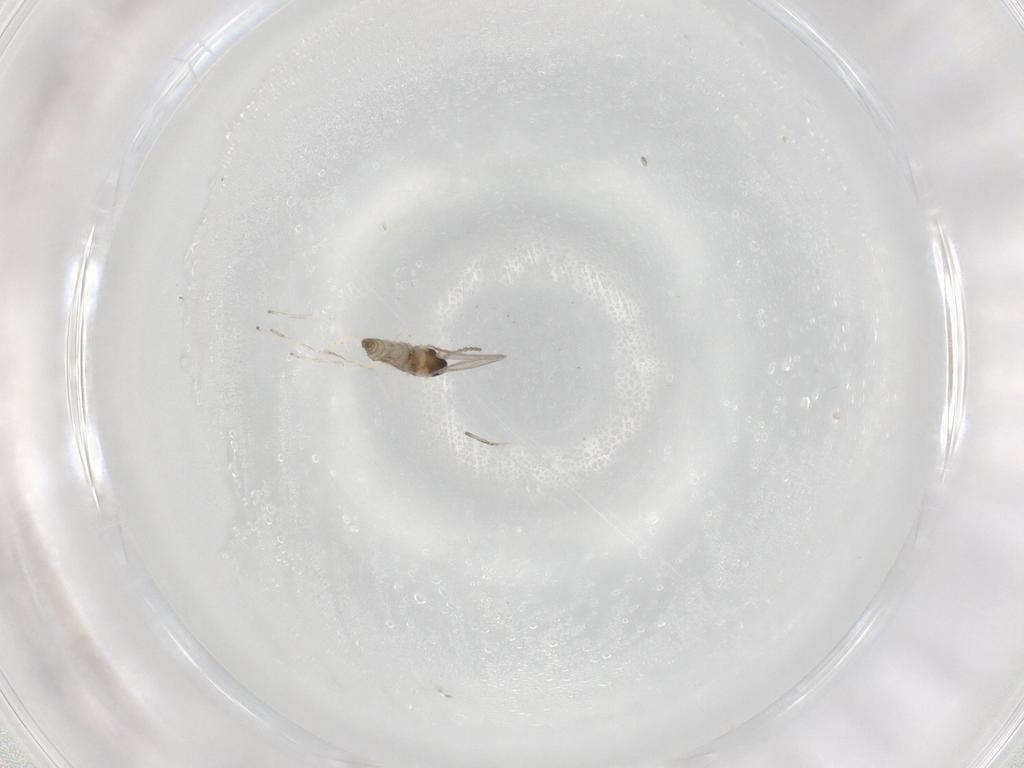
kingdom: Animalia
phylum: Arthropoda
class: Insecta
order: Diptera
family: Cecidomyiidae
